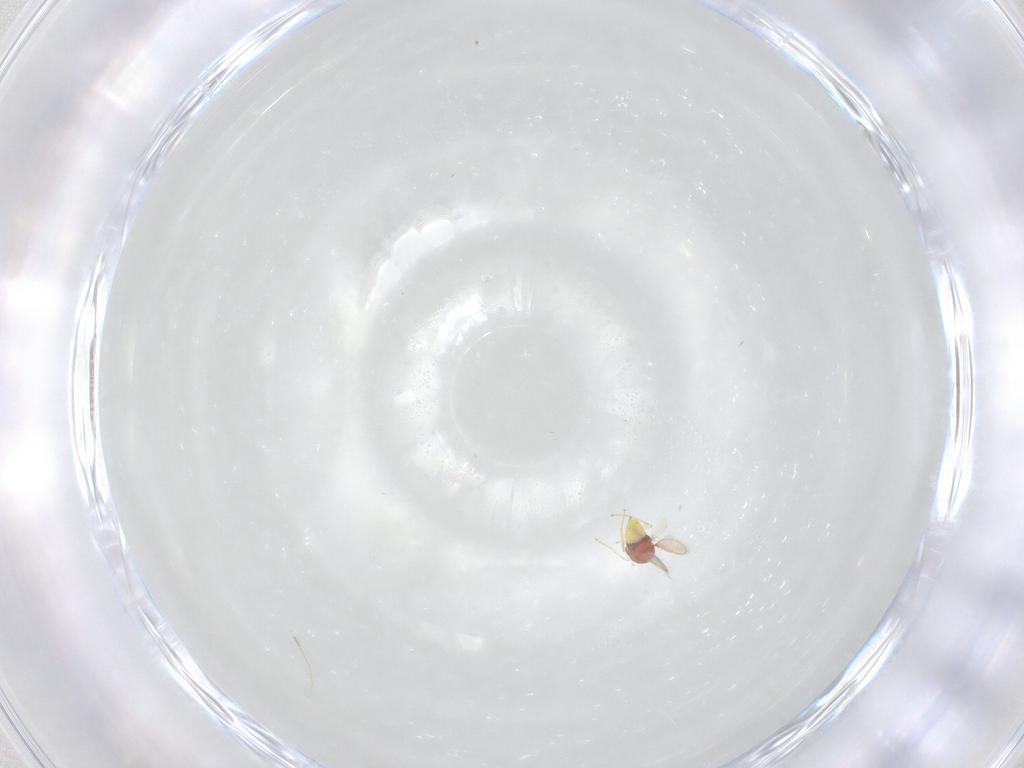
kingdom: Animalia
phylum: Arthropoda
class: Insecta
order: Hymenoptera
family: Aphelinidae
